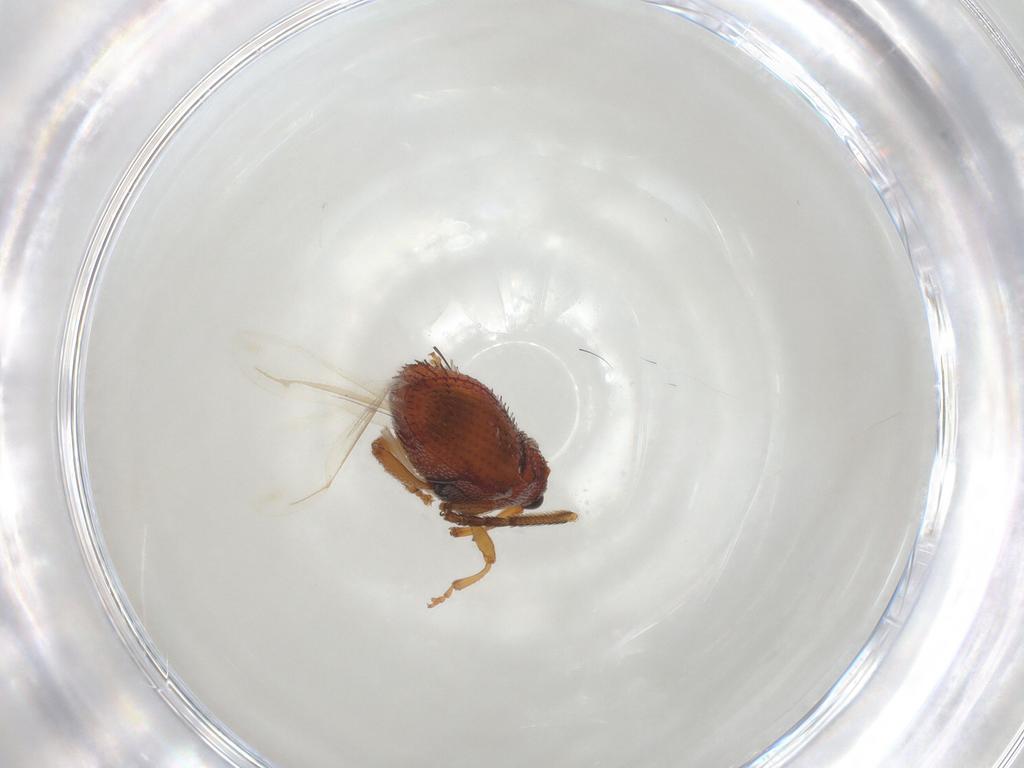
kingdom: Animalia
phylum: Arthropoda
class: Insecta
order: Coleoptera
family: Curculionidae
